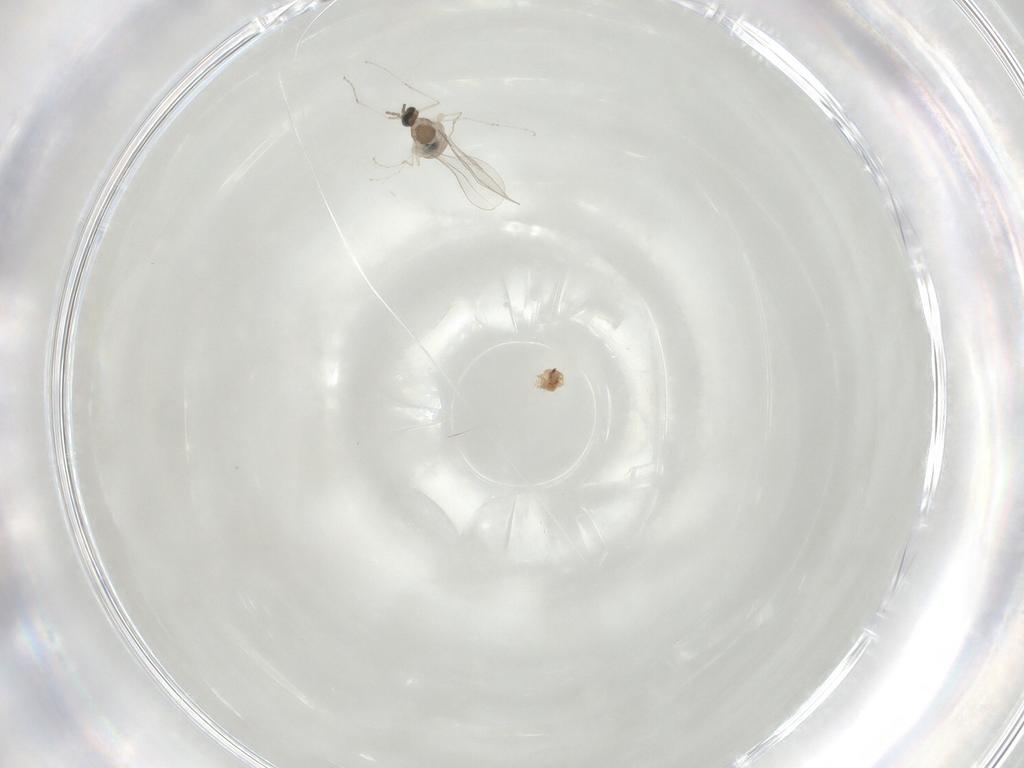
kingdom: Animalia
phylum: Arthropoda
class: Insecta
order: Diptera
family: Cecidomyiidae
